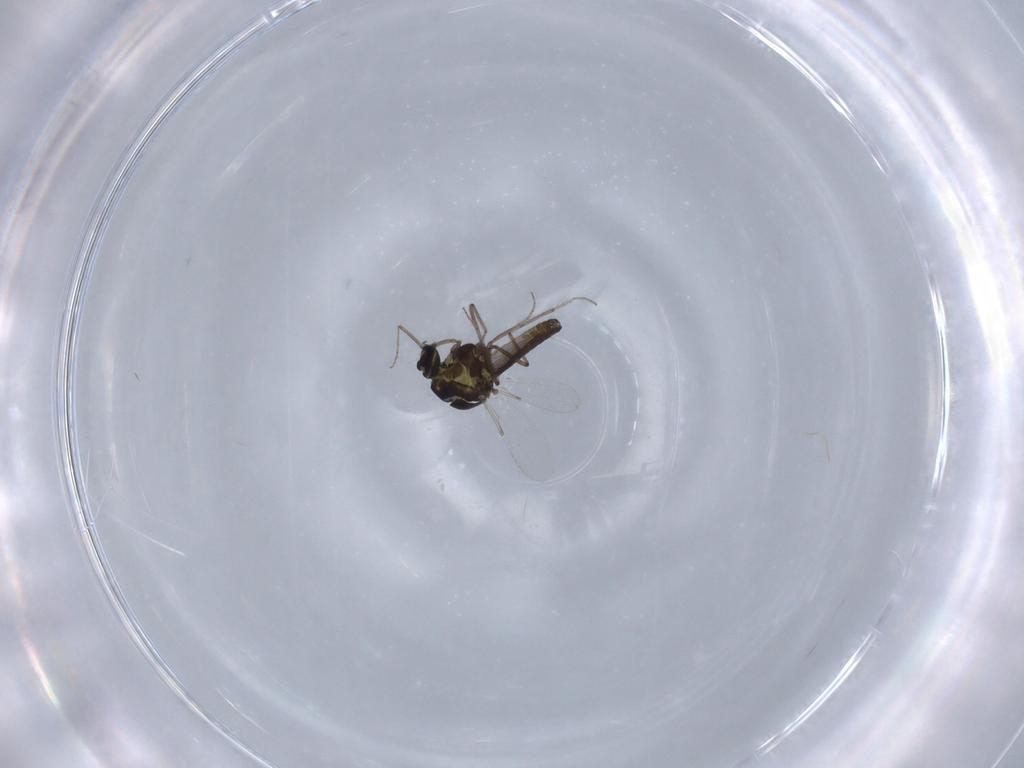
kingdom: Animalia
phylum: Arthropoda
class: Insecta
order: Diptera
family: Ceratopogonidae
